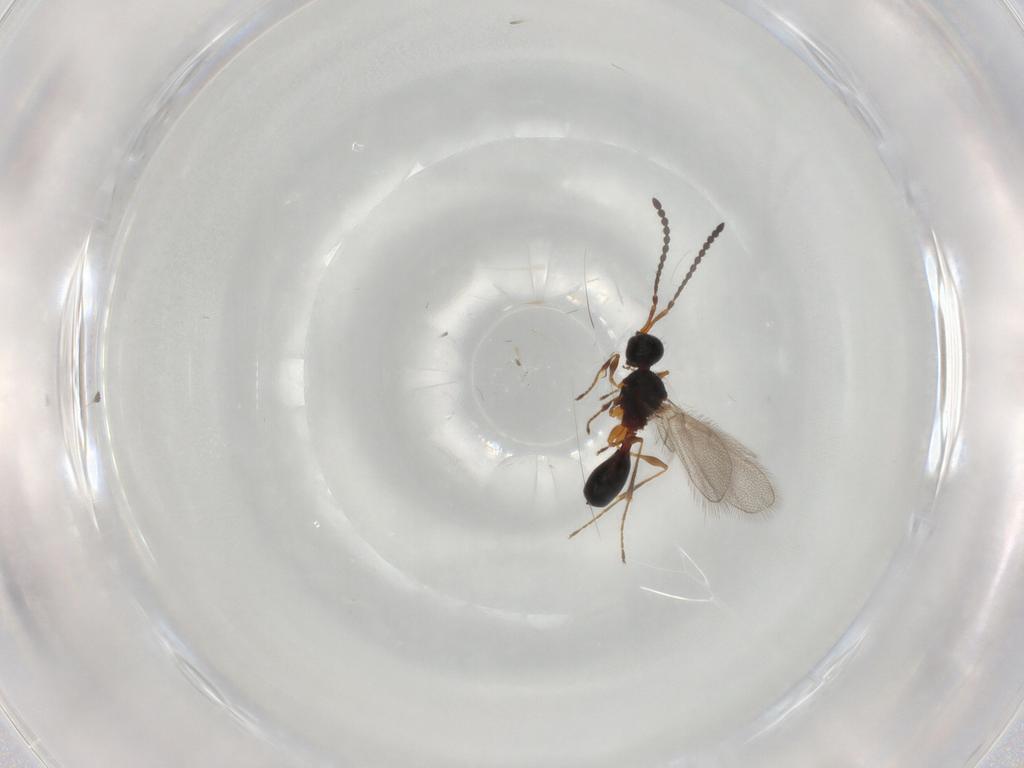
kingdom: Animalia
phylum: Arthropoda
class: Insecta
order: Hymenoptera
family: Diapriidae
